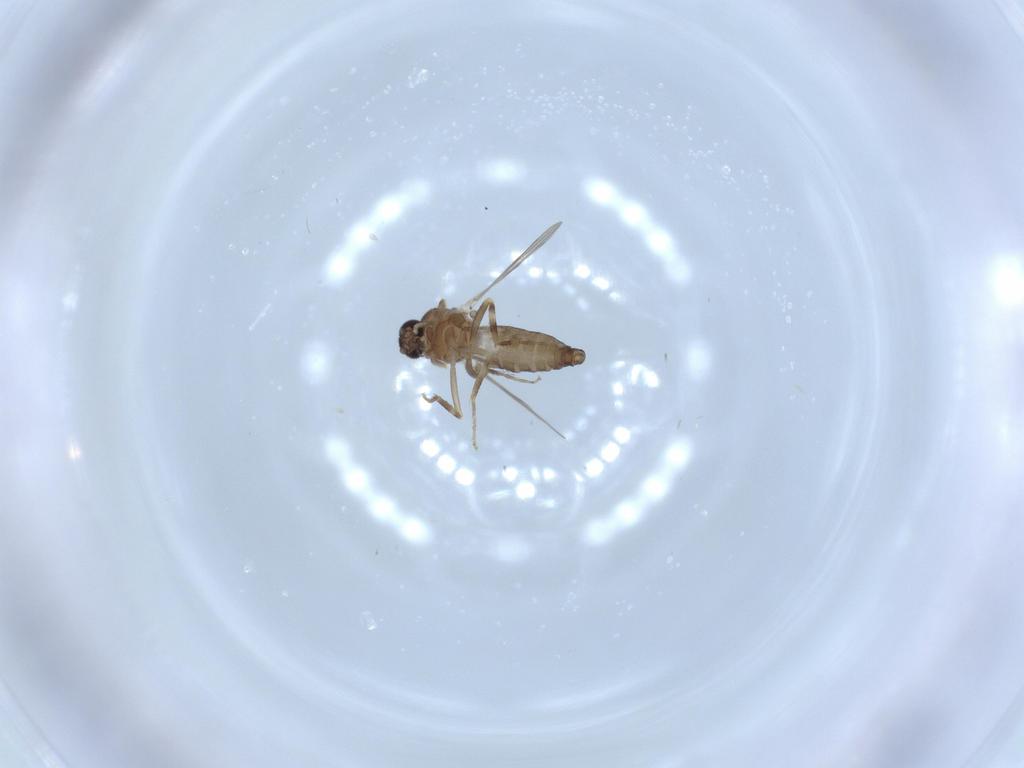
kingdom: Animalia
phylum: Arthropoda
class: Insecta
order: Diptera
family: Ceratopogonidae
